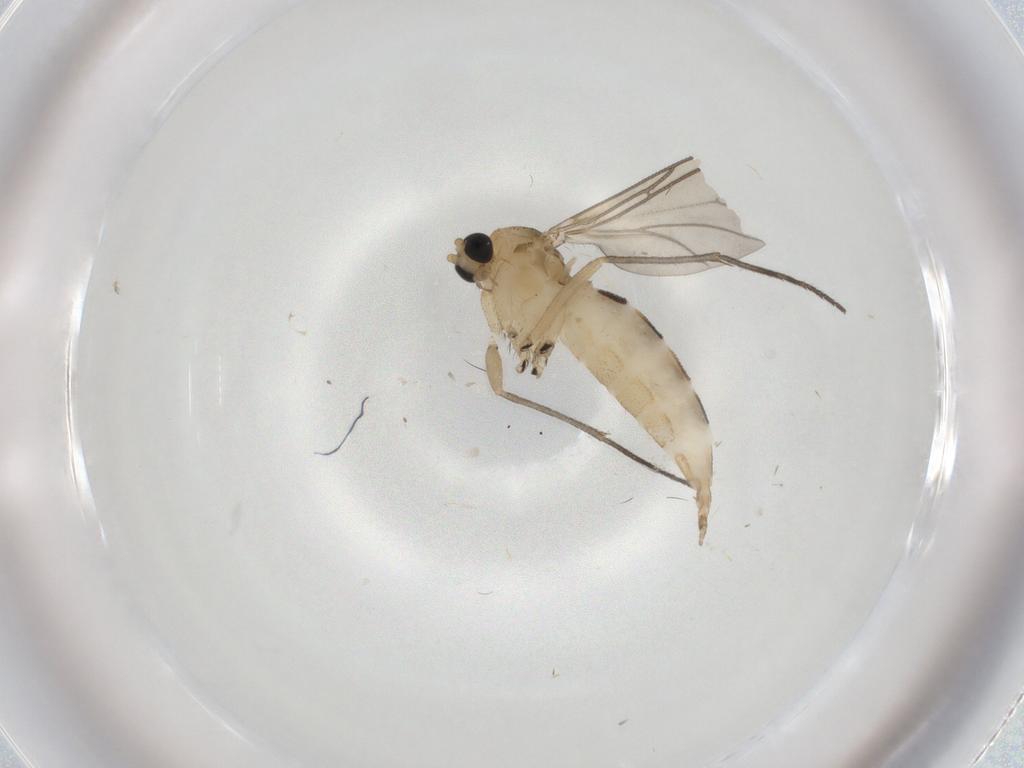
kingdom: Animalia
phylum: Arthropoda
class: Insecta
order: Diptera
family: Sciaridae
